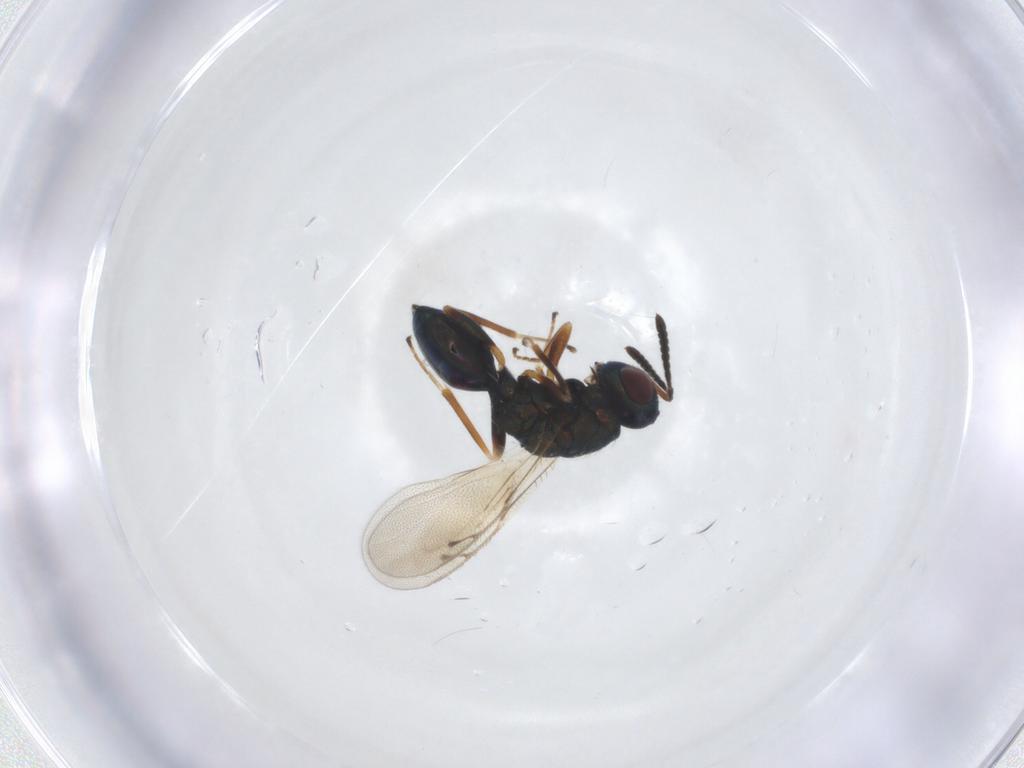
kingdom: Animalia
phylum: Arthropoda
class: Insecta
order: Hymenoptera
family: Pteromalidae
